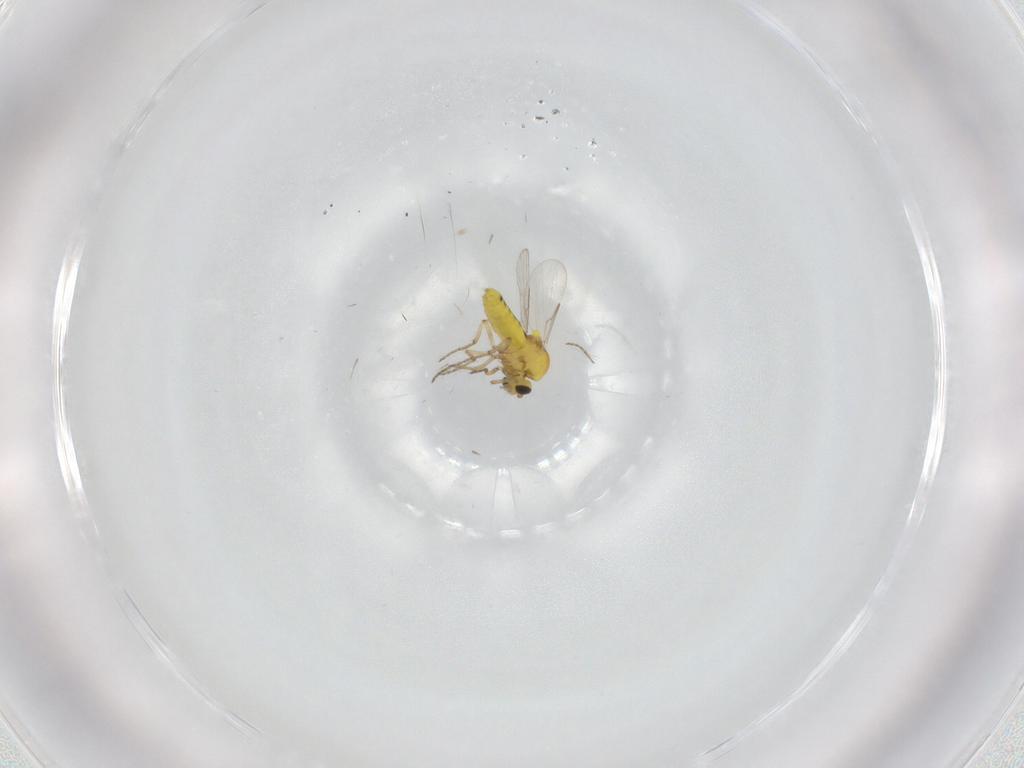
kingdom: Animalia
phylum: Arthropoda
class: Insecta
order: Diptera
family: Ceratopogonidae
